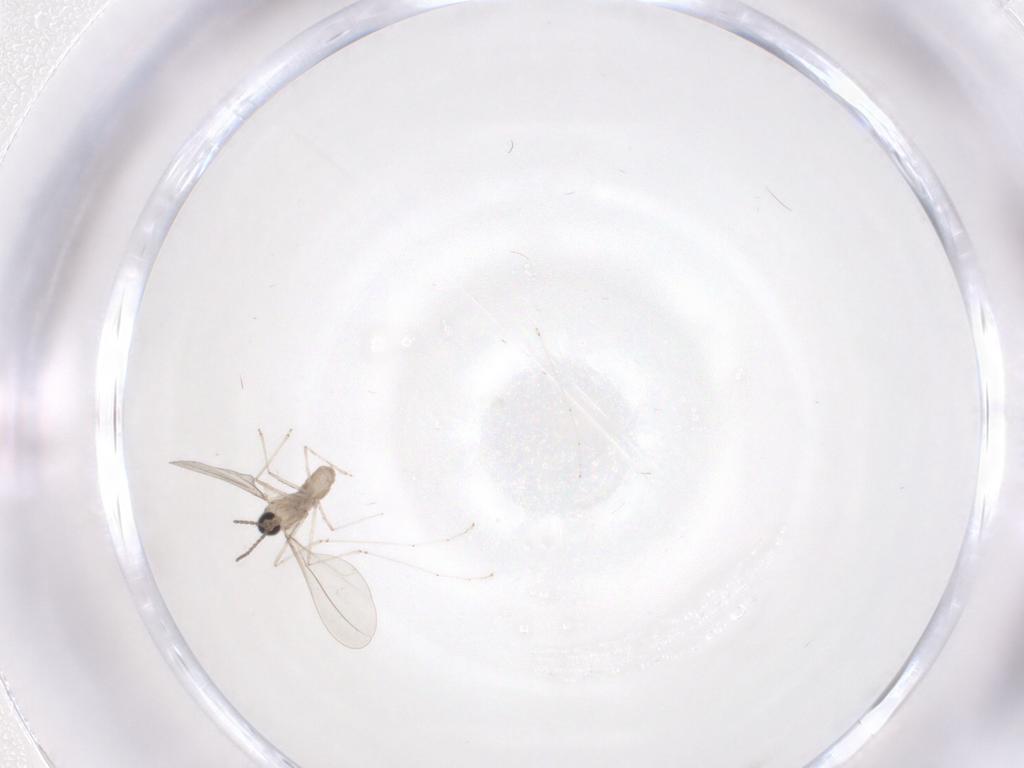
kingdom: Animalia
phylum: Arthropoda
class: Insecta
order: Diptera
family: Cecidomyiidae
